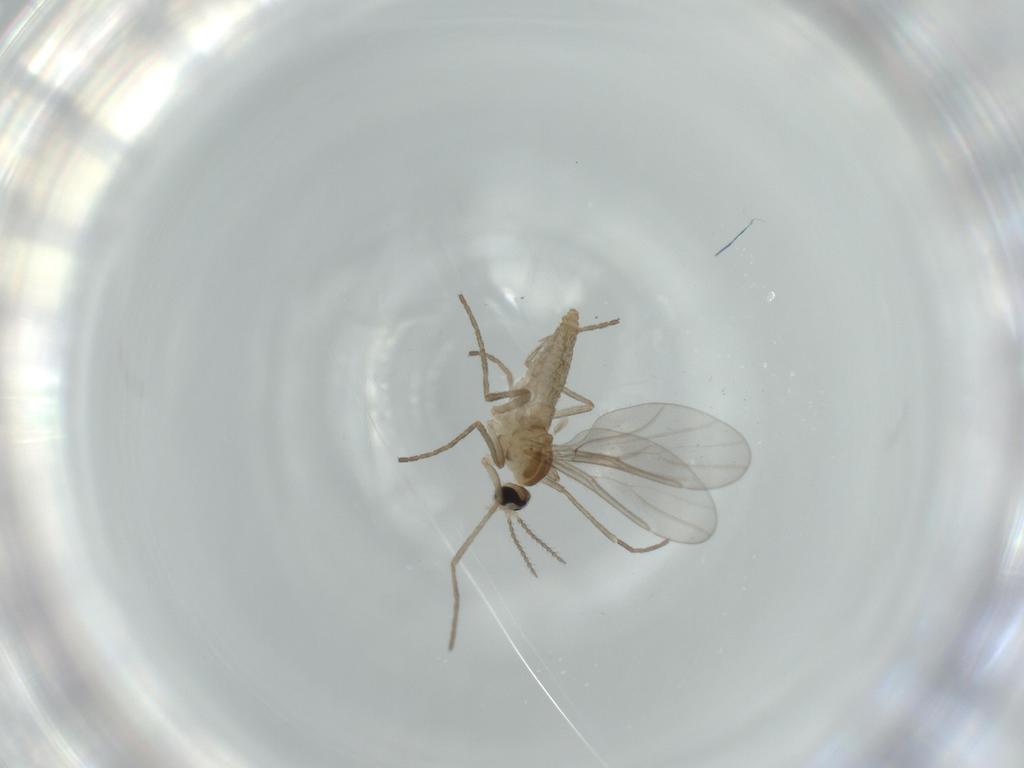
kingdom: Animalia
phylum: Arthropoda
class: Insecta
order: Diptera
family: Cecidomyiidae
